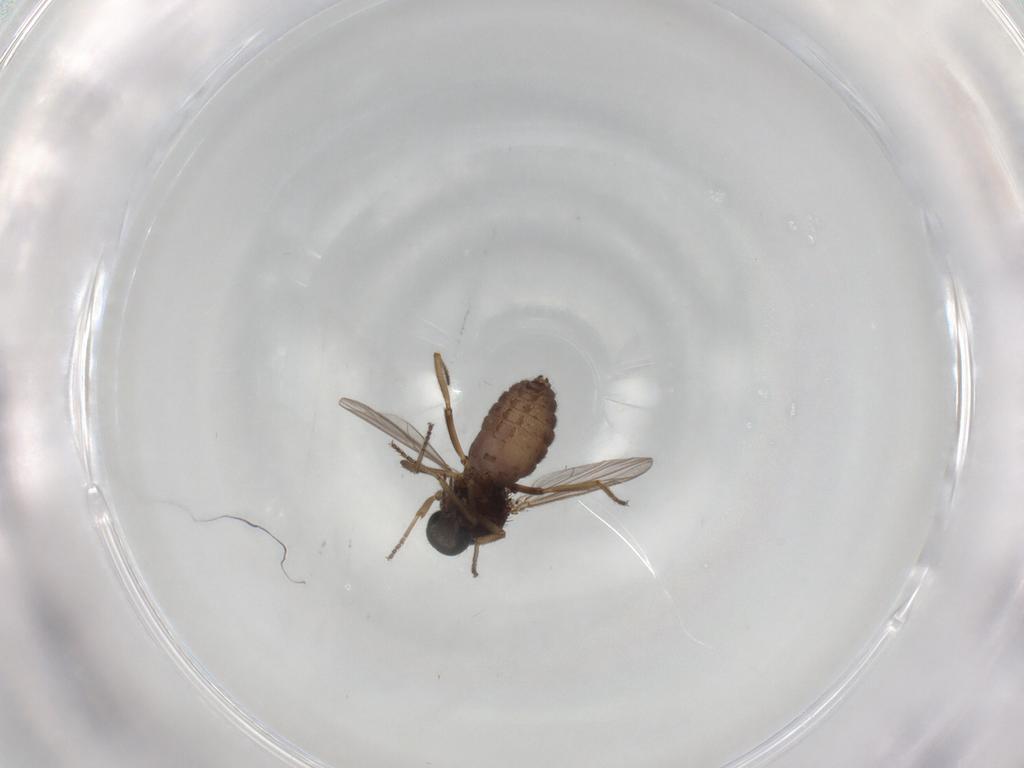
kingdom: Animalia
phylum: Arthropoda
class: Insecta
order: Diptera
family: Ceratopogonidae
